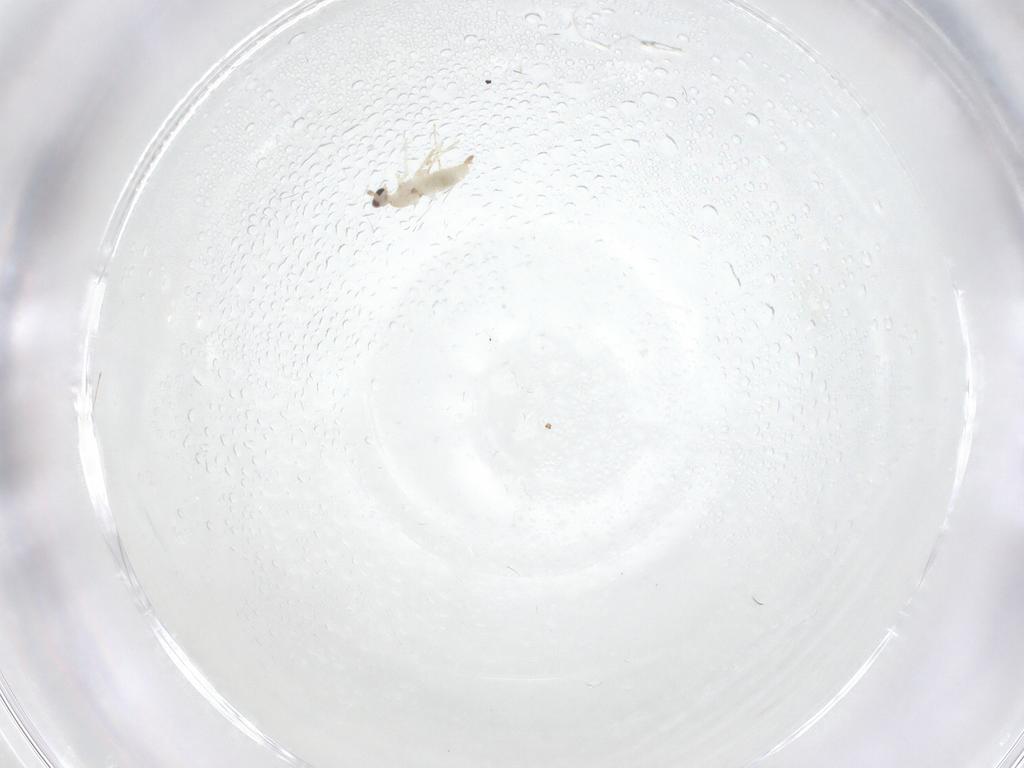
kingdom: Animalia
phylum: Arthropoda
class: Insecta
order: Diptera
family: Cecidomyiidae
